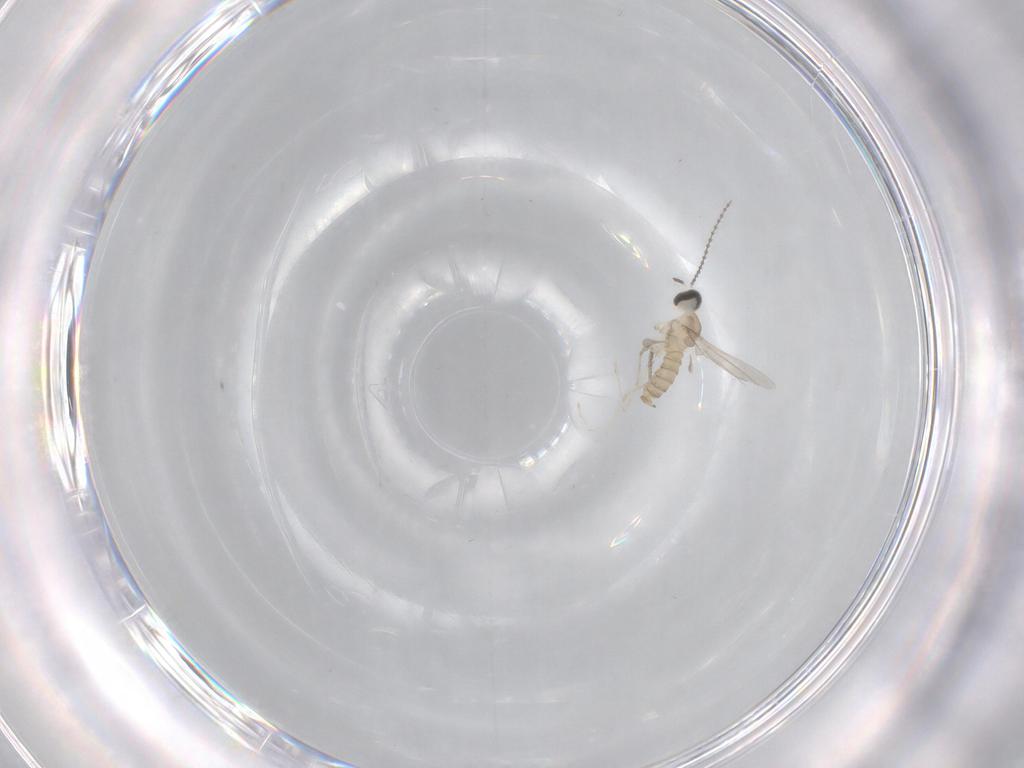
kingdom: Animalia
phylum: Arthropoda
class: Insecta
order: Diptera
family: Cecidomyiidae
